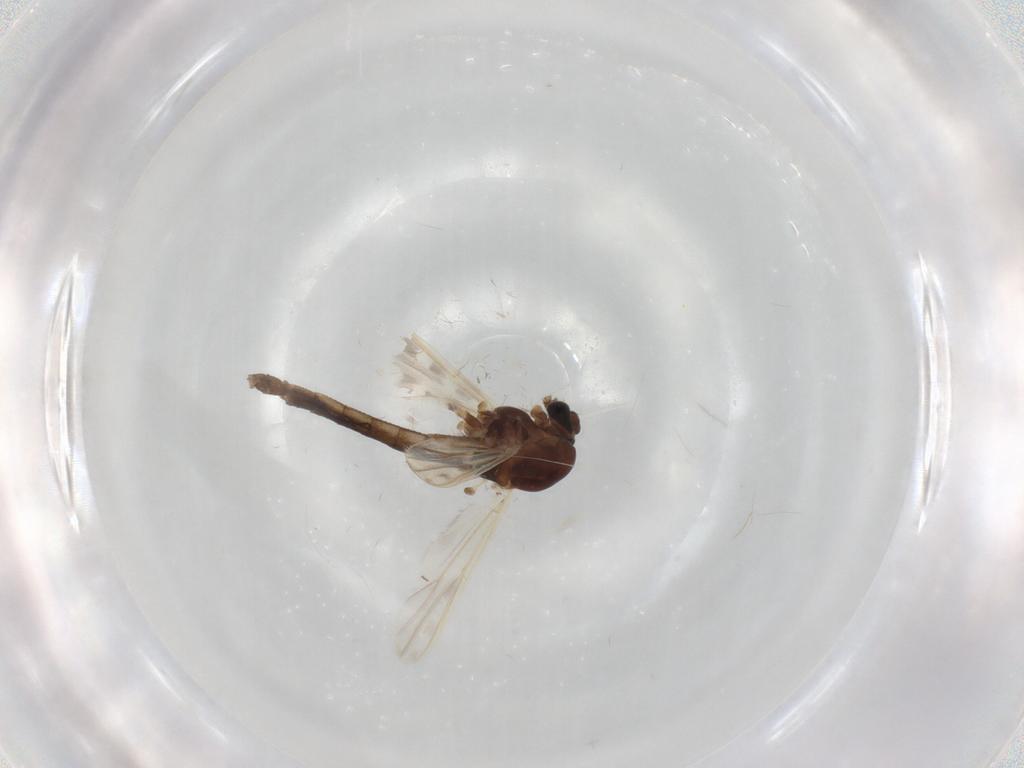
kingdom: Animalia
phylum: Arthropoda
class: Insecta
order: Diptera
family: Chironomidae
